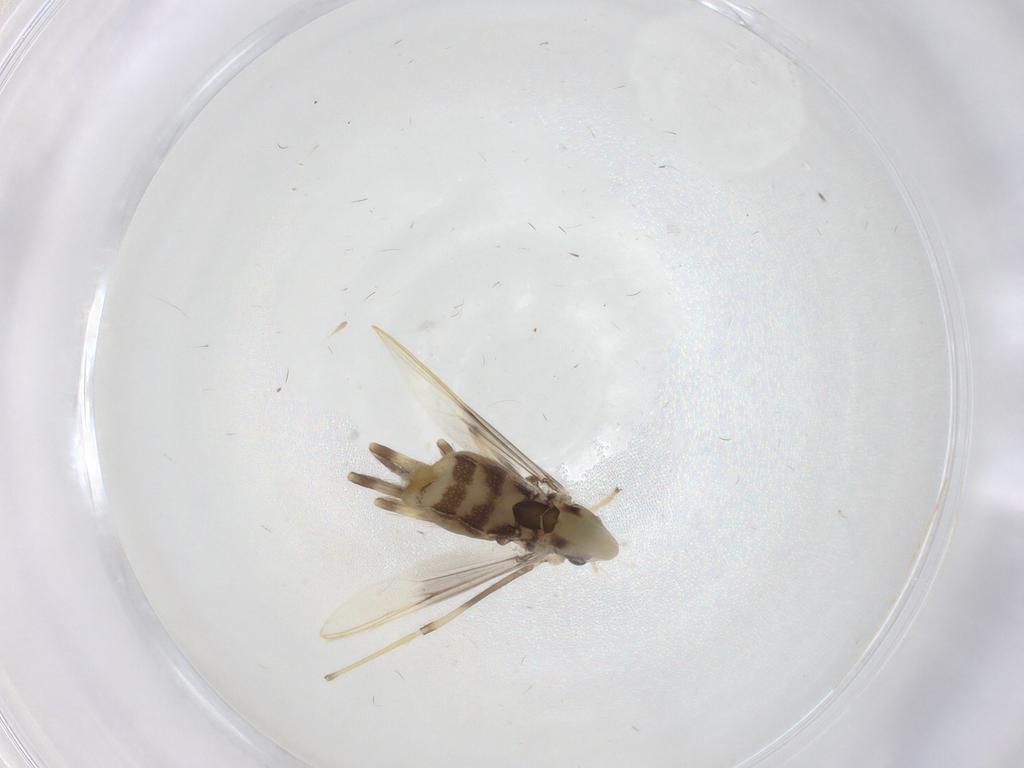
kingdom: Animalia
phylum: Arthropoda
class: Insecta
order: Diptera
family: Chironomidae
